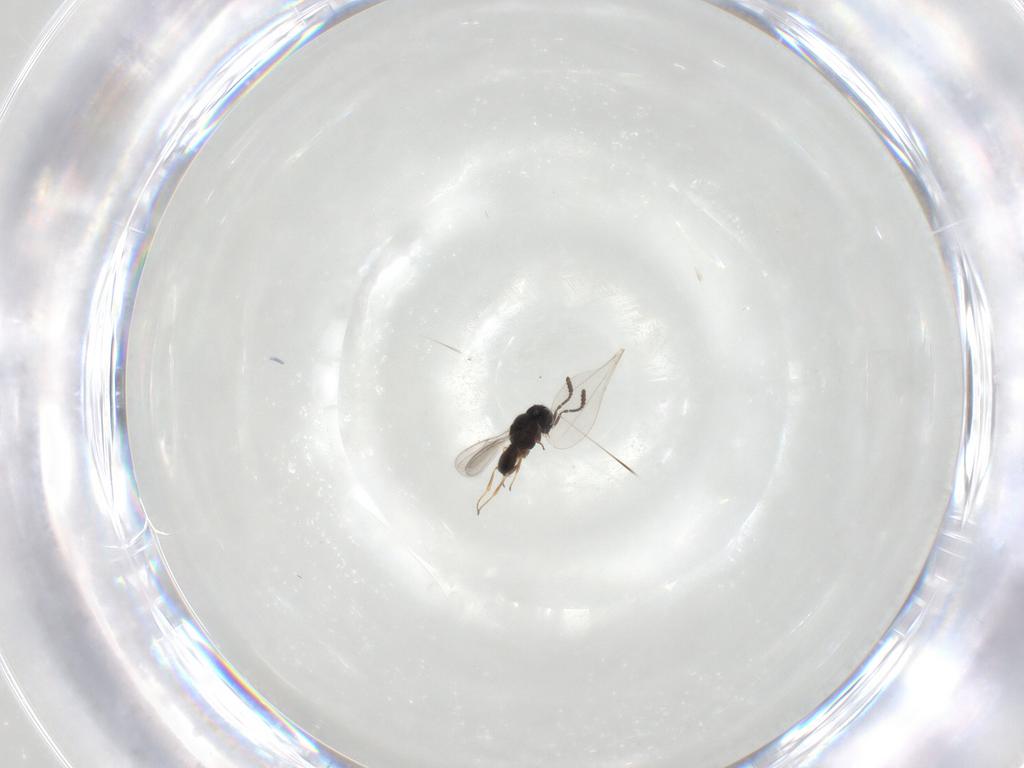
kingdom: Animalia
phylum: Arthropoda
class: Insecta
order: Hymenoptera
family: Scelionidae
